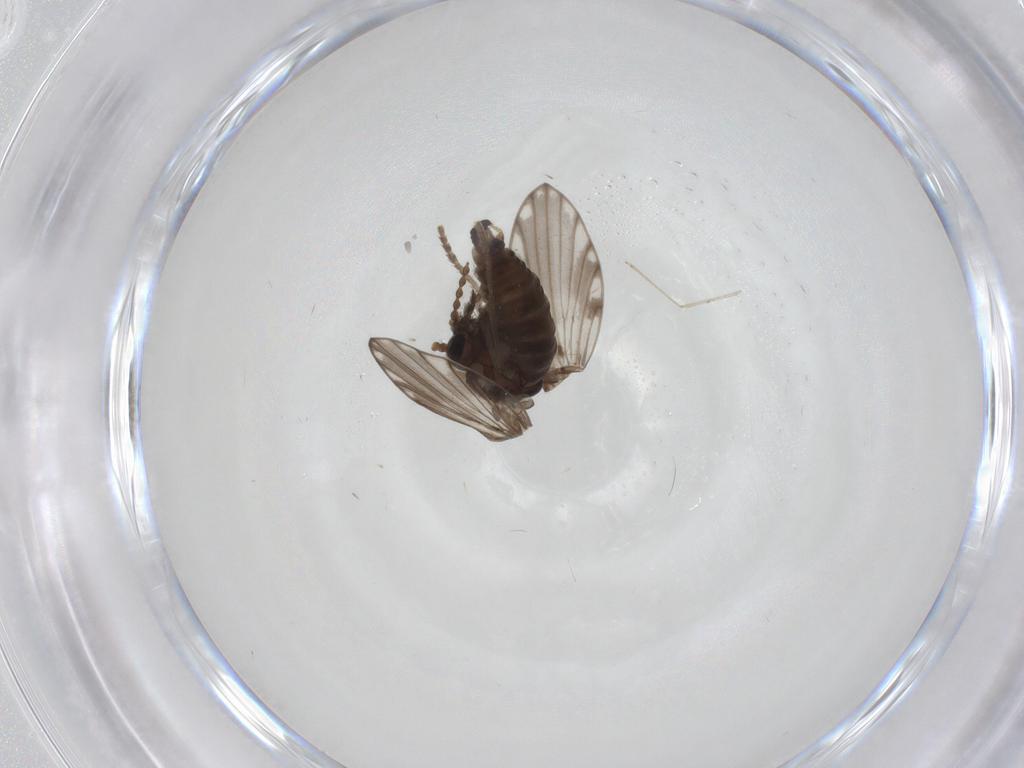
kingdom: Animalia
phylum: Arthropoda
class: Insecta
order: Diptera
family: Psychodidae
